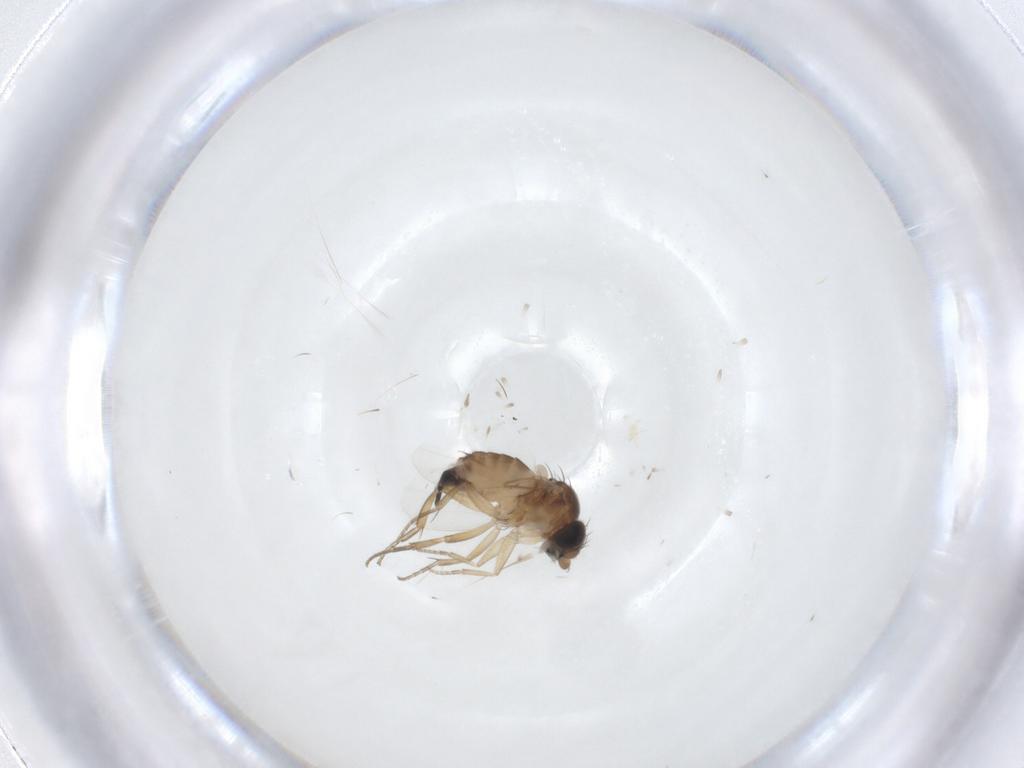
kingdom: Animalia
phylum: Arthropoda
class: Insecta
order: Diptera
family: Phoridae
